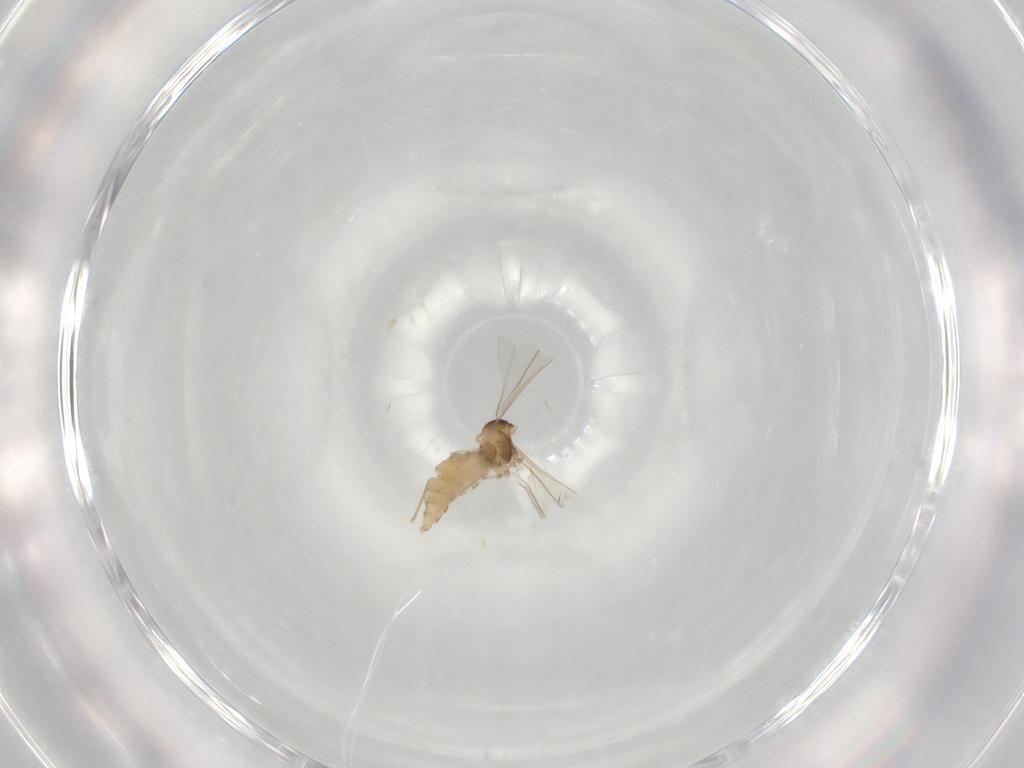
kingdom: Animalia
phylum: Arthropoda
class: Insecta
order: Diptera
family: Cecidomyiidae
